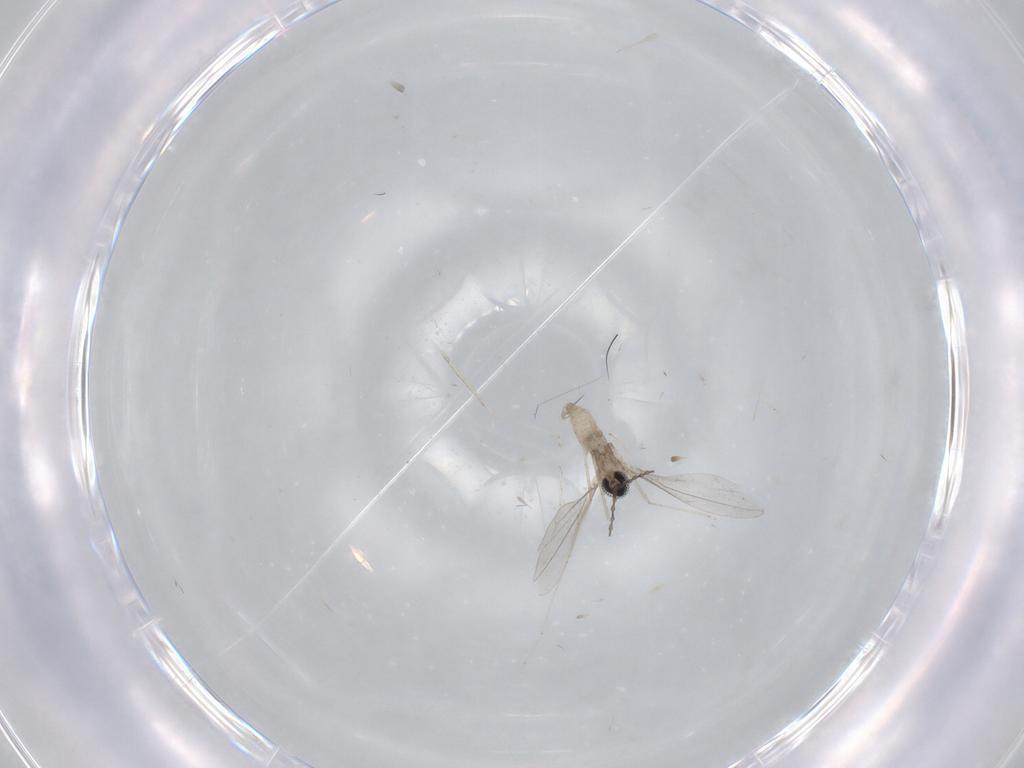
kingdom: Animalia
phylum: Arthropoda
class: Insecta
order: Diptera
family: Cecidomyiidae
